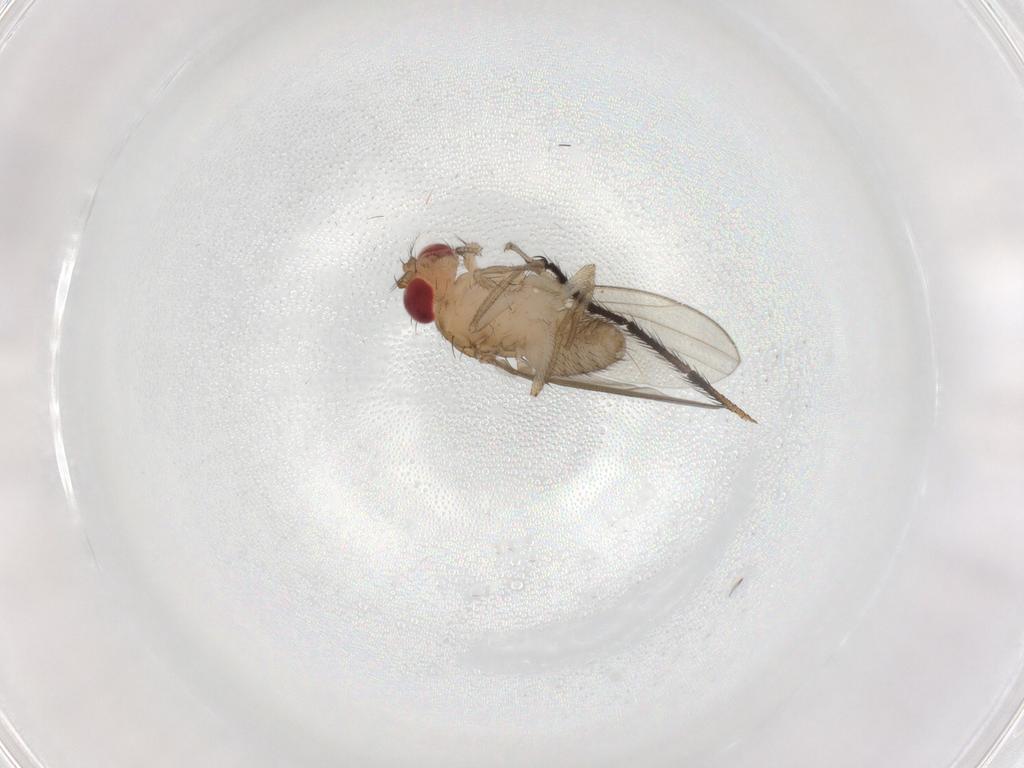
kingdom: Animalia
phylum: Arthropoda
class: Insecta
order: Diptera
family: Drosophilidae
